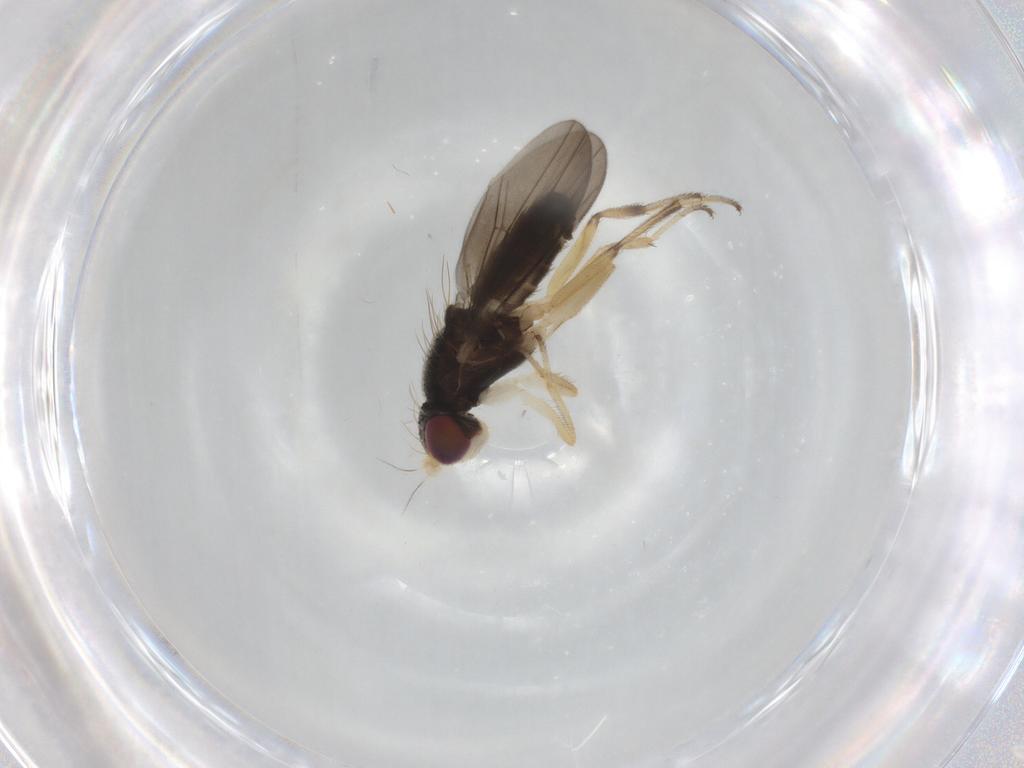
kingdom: Animalia
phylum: Arthropoda
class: Insecta
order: Diptera
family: Clusiidae
